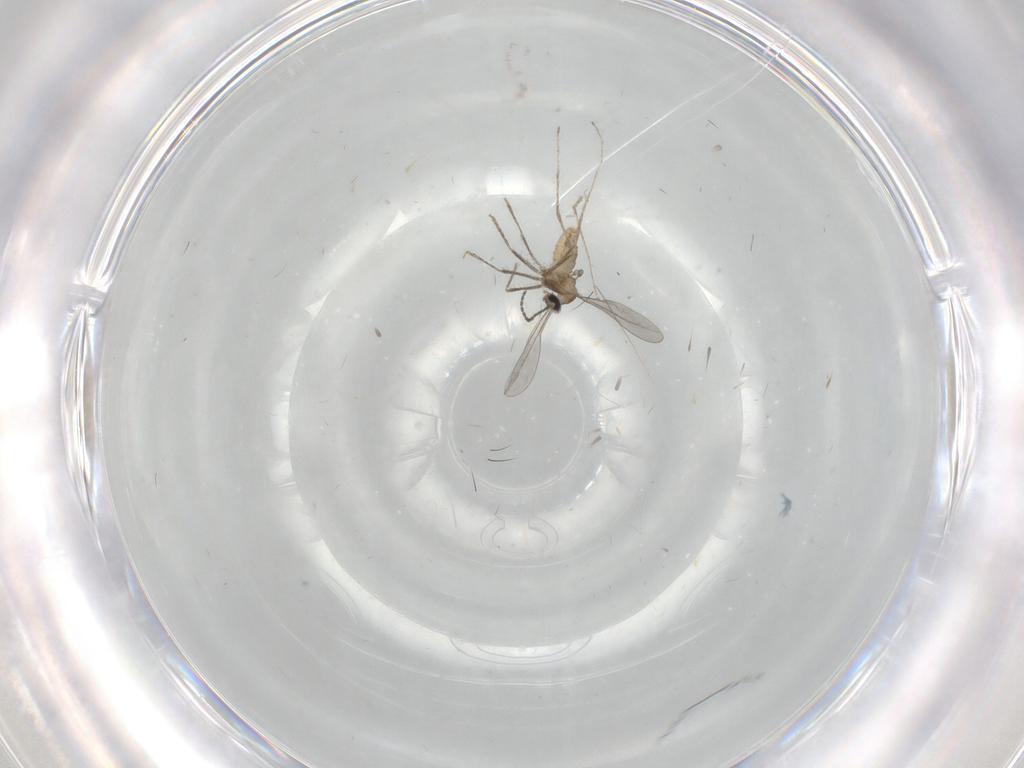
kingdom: Animalia
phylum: Arthropoda
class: Insecta
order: Diptera
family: Cecidomyiidae
